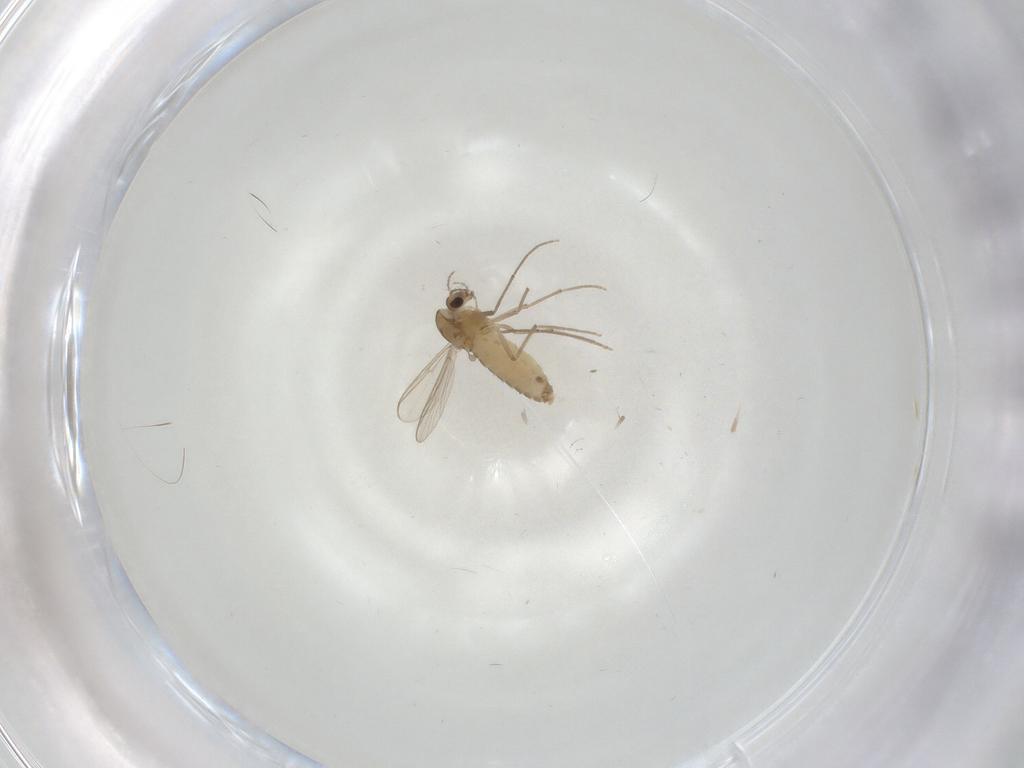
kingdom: Animalia
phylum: Arthropoda
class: Insecta
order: Diptera
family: Chironomidae
